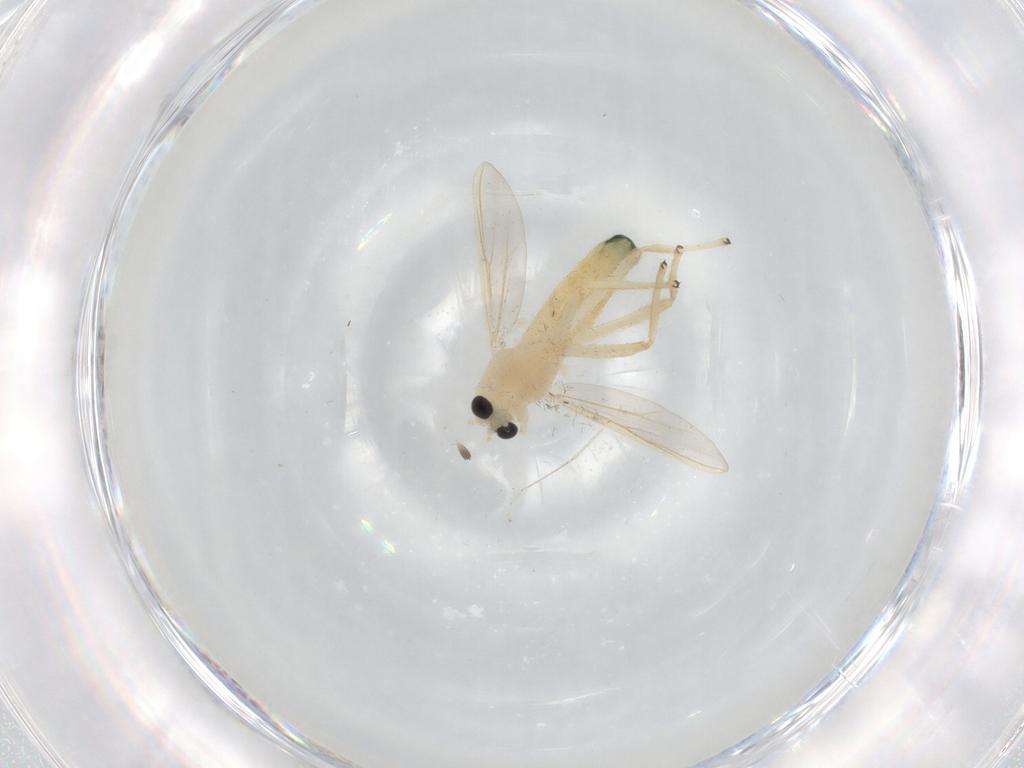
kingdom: Animalia
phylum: Arthropoda
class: Insecta
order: Diptera
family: Chironomidae
